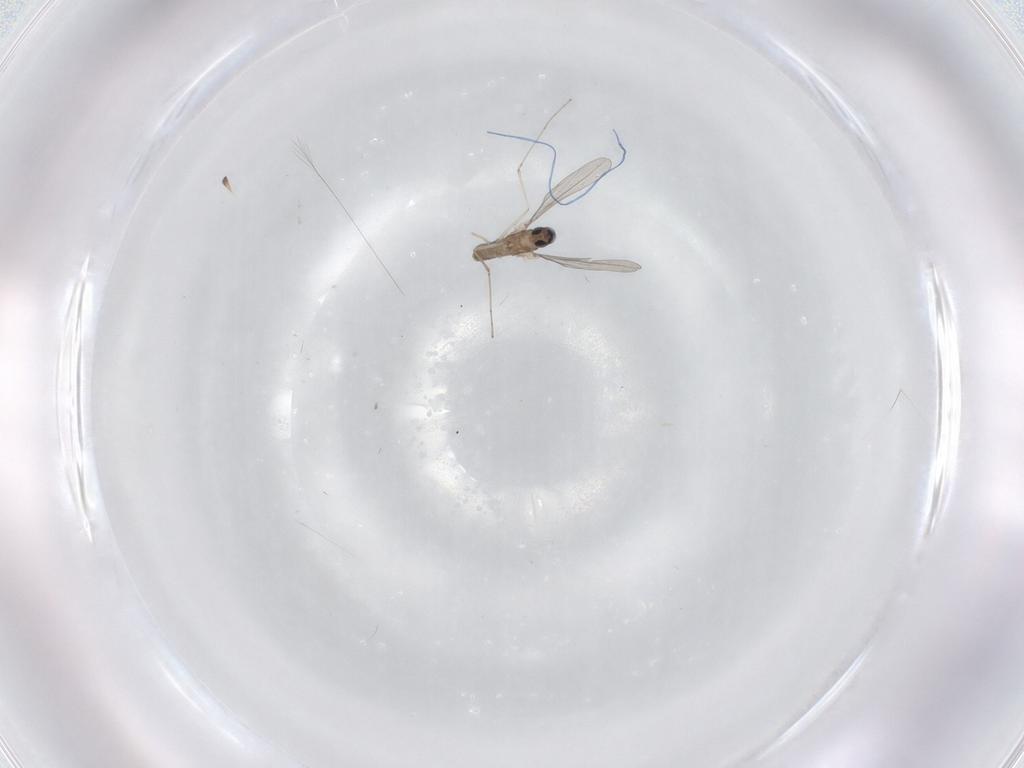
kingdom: Animalia
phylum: Arthropoda
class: Insecta
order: Diptera
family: Cecidomyiidae
